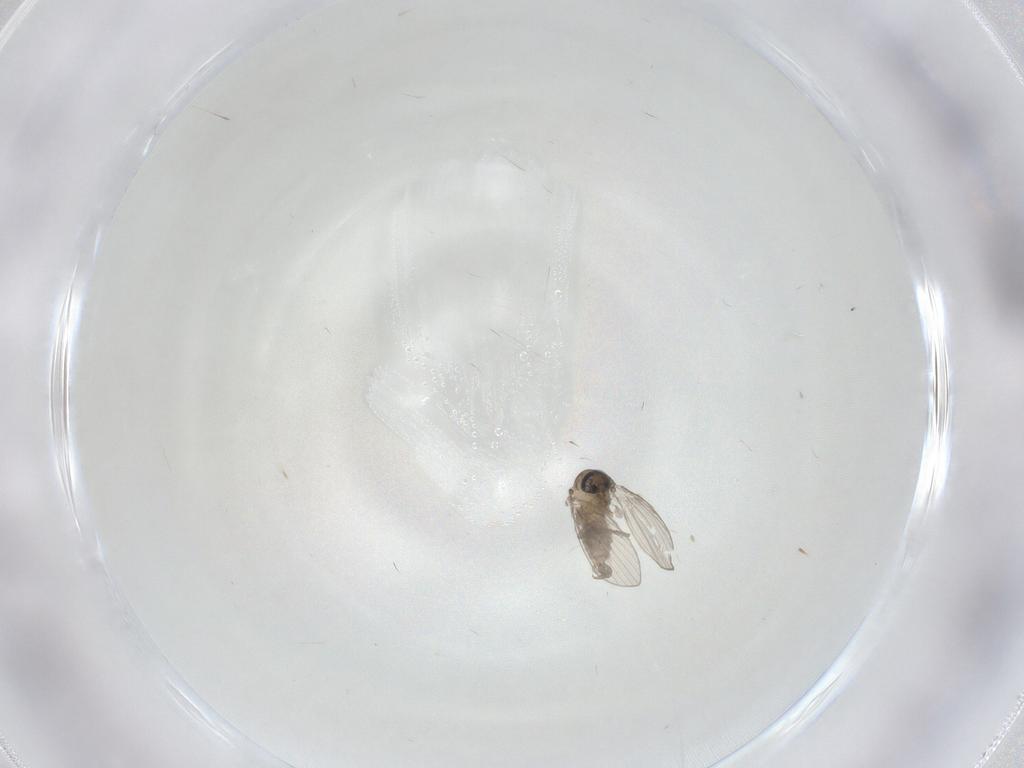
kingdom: Animalia
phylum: Arthropoda
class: Insecta
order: Diptera
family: Psychodidae
